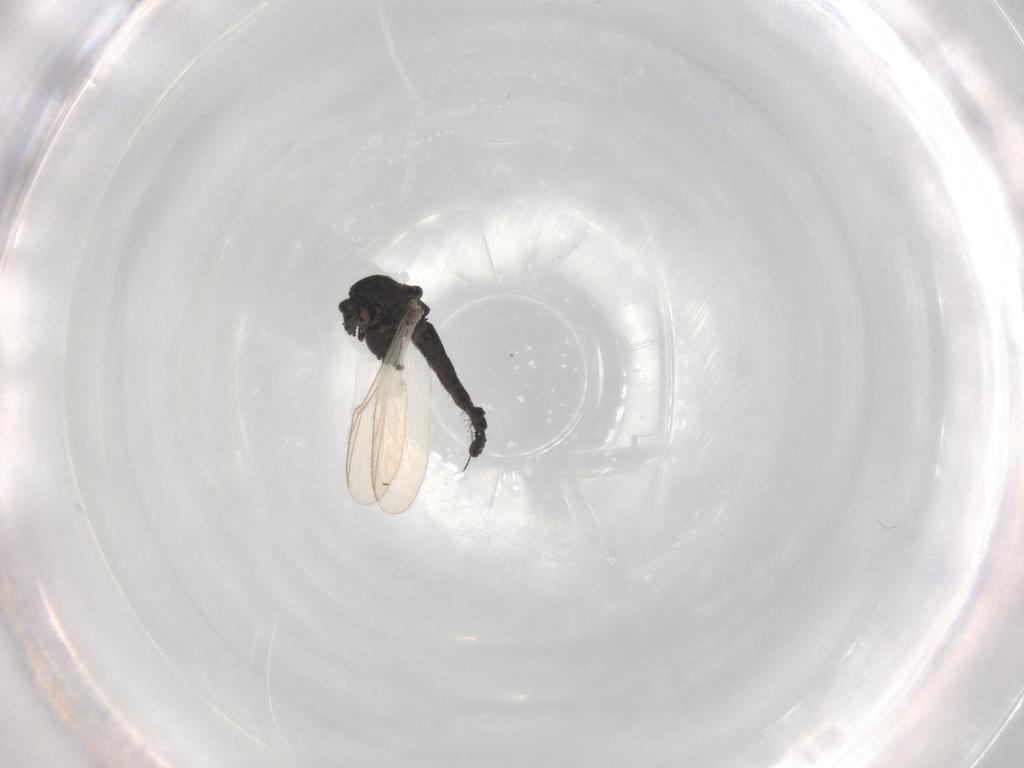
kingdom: Animalia
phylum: Arthropoda
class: Insecta
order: Diptera
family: Chironomidae
